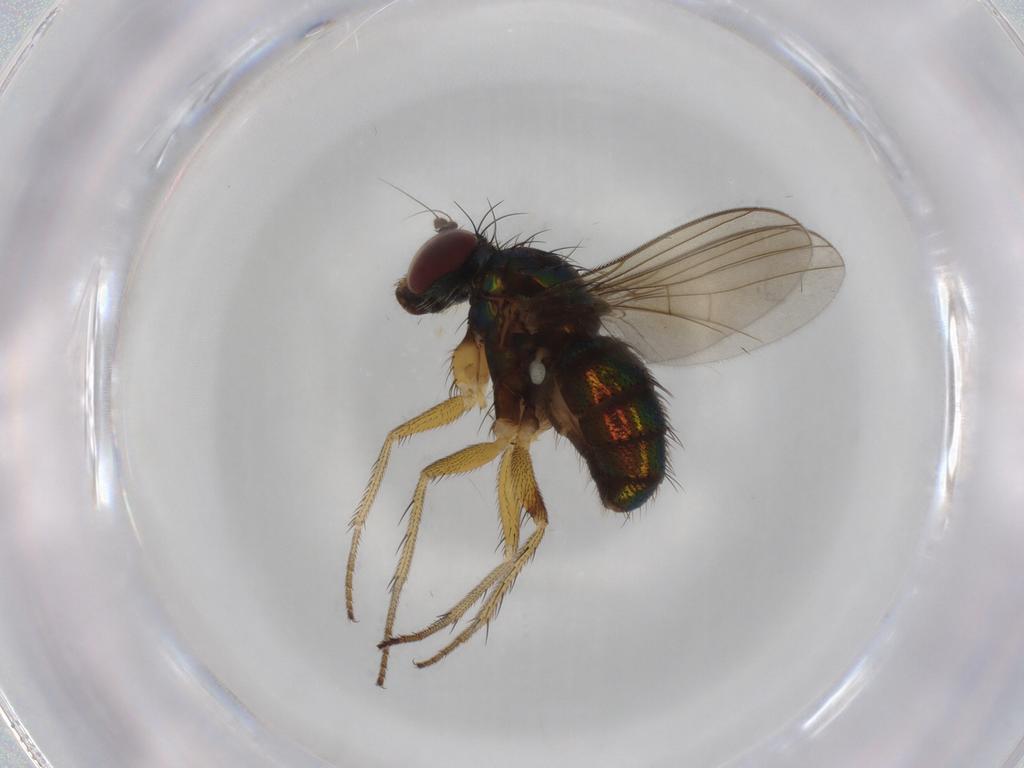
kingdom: Animalia
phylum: Arthropoda
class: Insecta
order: Diptera
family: Dolichopodidae
